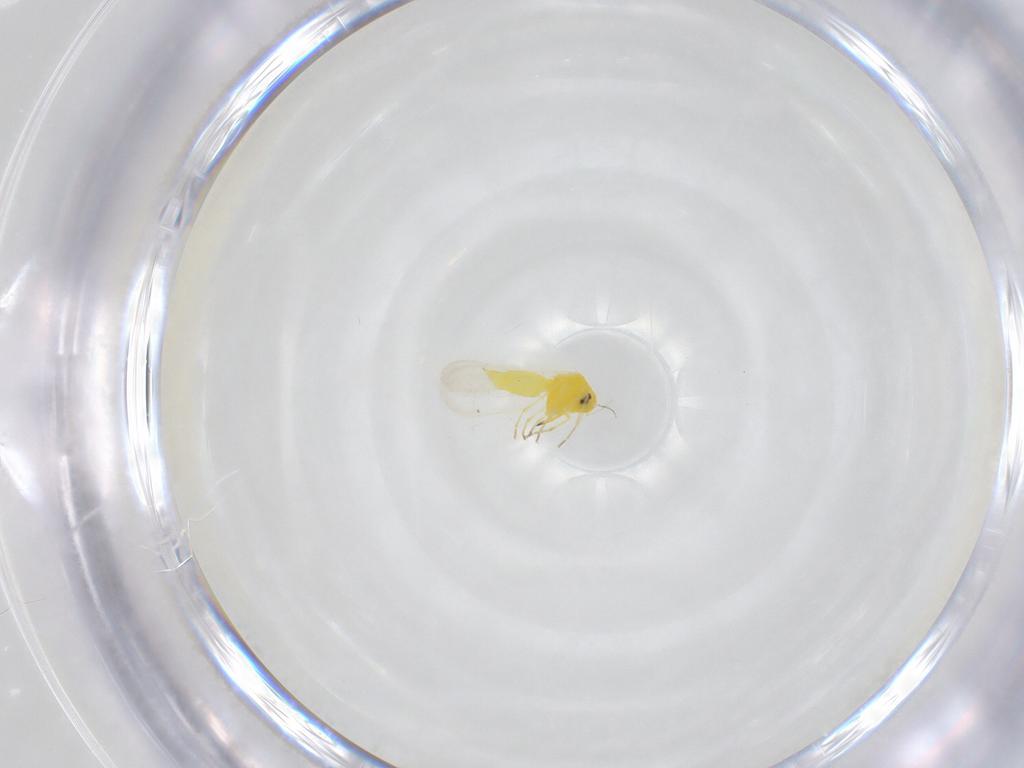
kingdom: Animalia
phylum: Arthropoda
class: Insecta
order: Hemiptera
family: Aleyrodidae
